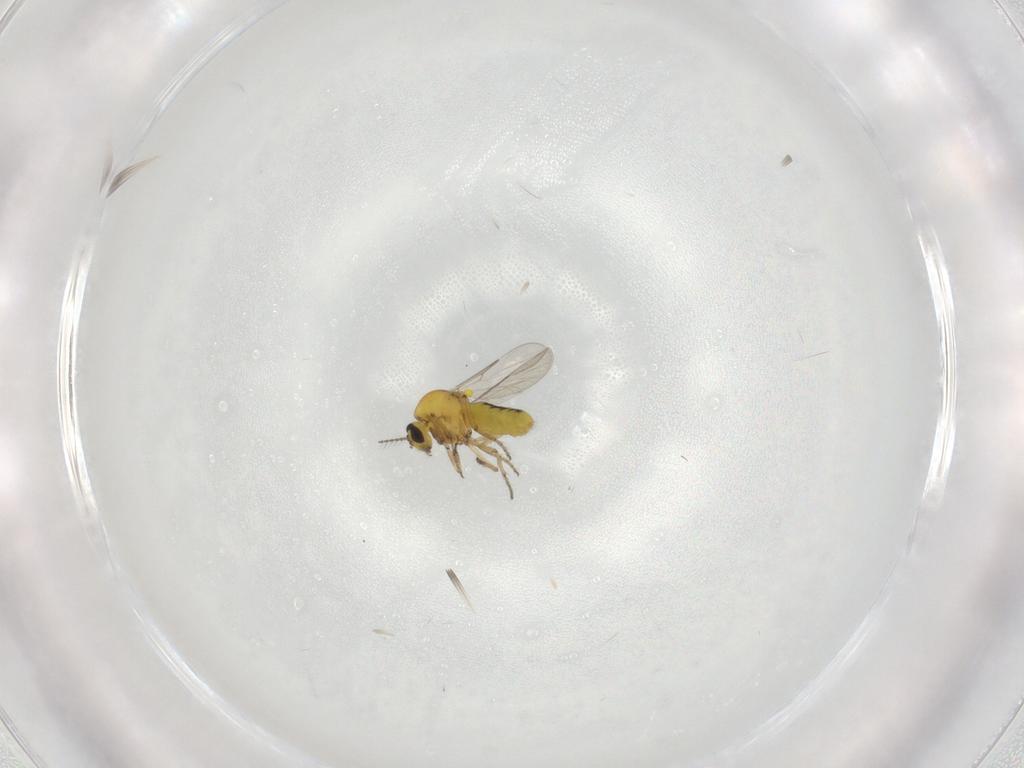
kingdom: Animalia
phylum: Arthropoda
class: Insecta
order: Diptera
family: Ceratopogonidae
